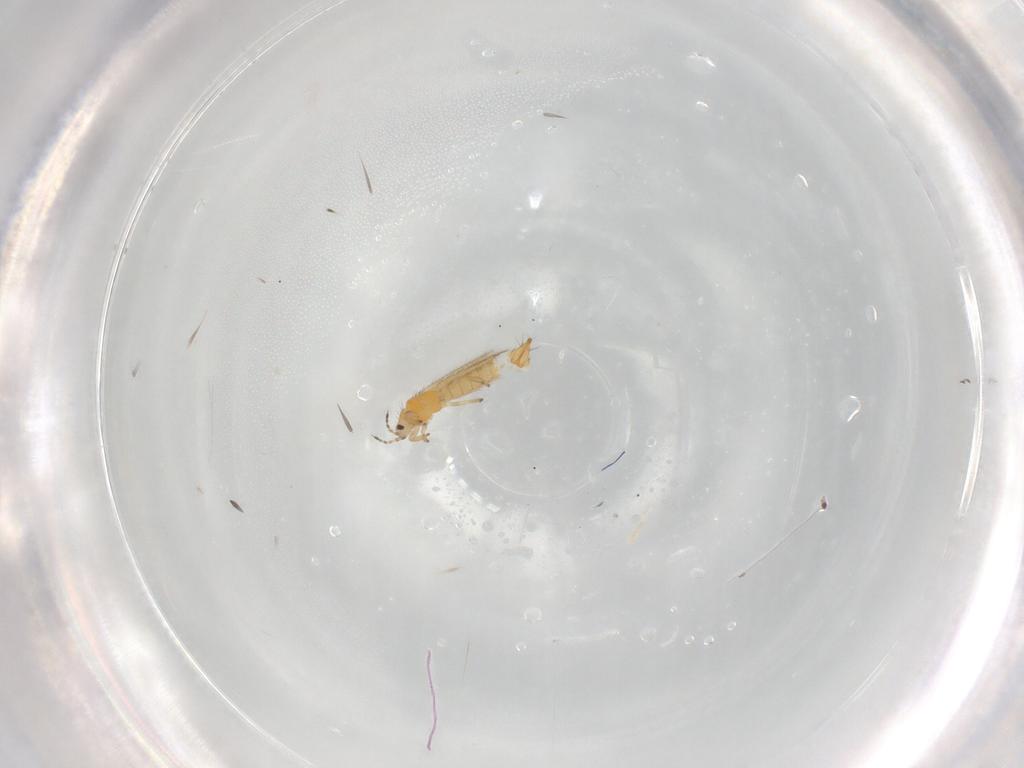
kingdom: Animalia
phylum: Arthropoda
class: Insecta
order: Thysanoptera
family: Thripidae
